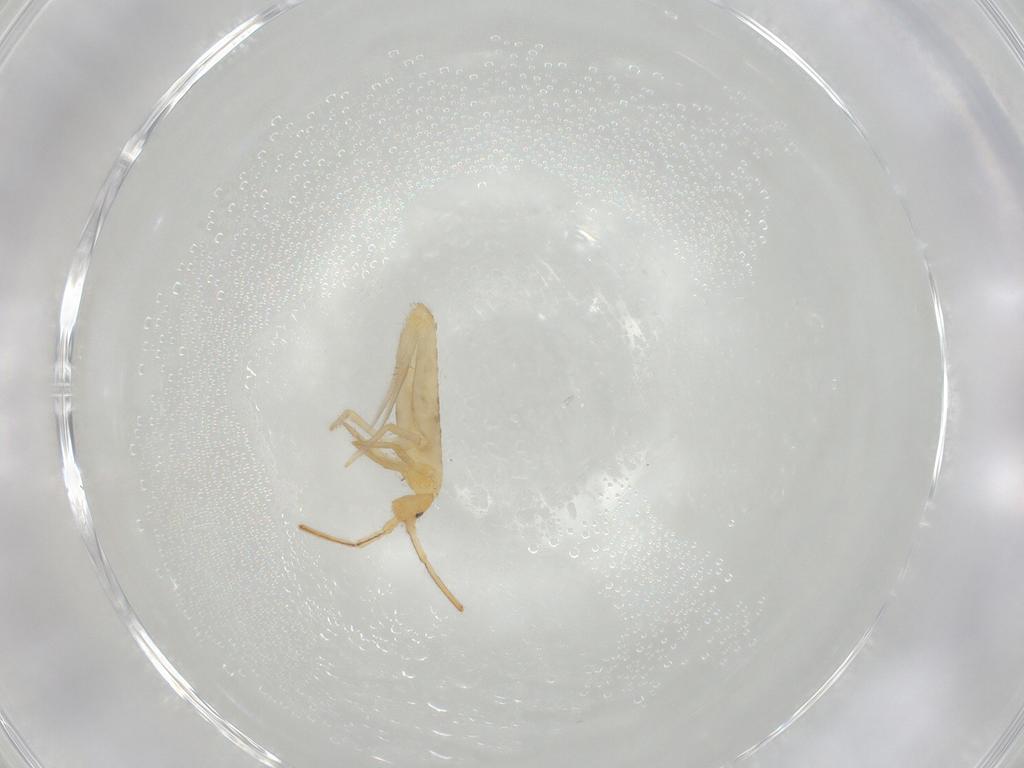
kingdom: Animalia
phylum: Arthropoda
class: Collembola
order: Entomobryomorpha
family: Entomobryidae
